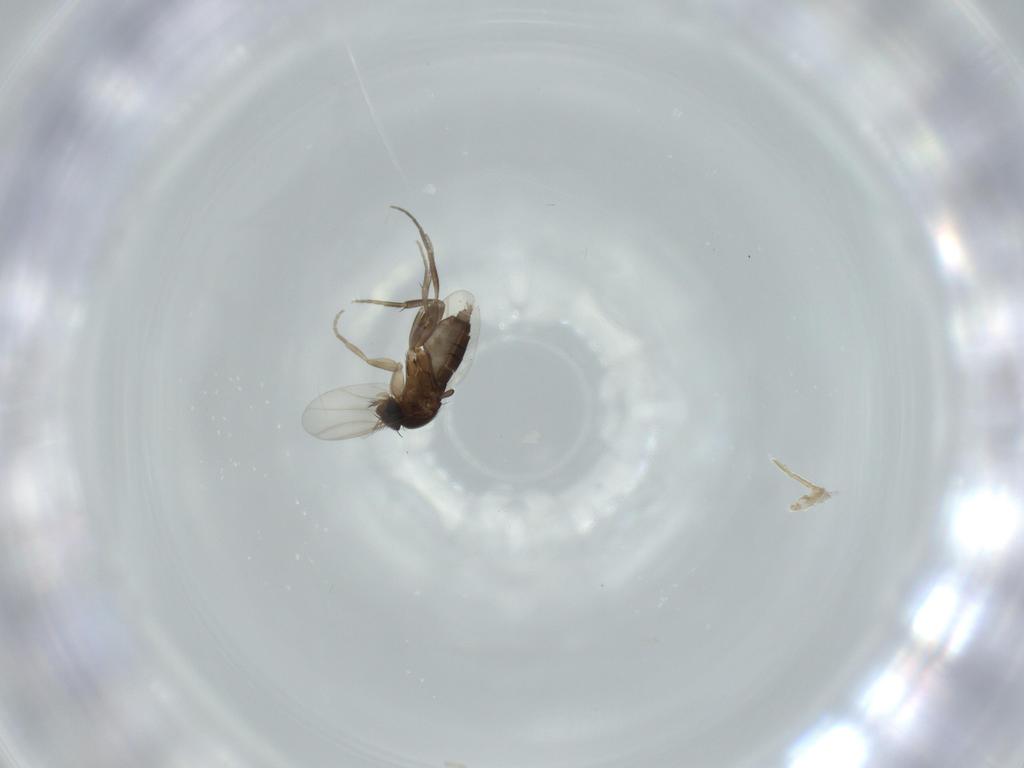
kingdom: Animalia
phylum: Arthropoda
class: Insecta
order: Diptera
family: Phoridae
